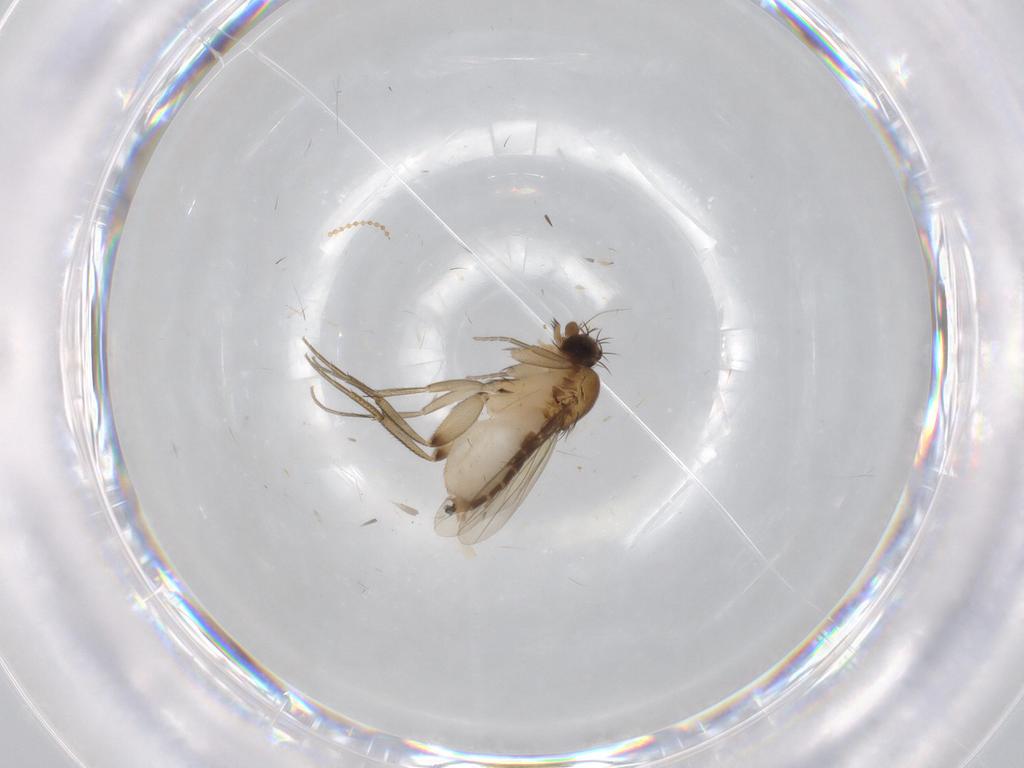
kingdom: Animalia
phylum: Arthropoda
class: Insecta
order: Diptera
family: Phoridae
